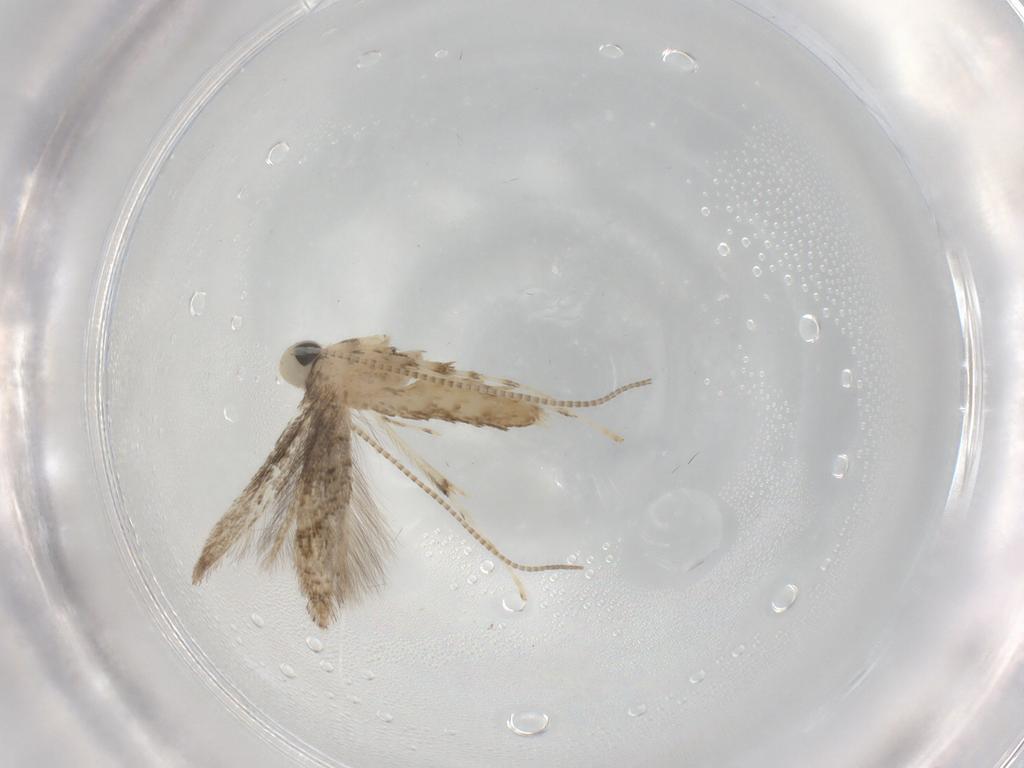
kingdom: Animalia
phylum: Arthropoda
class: Insecta
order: Lepidoptera
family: Gracillariidae
